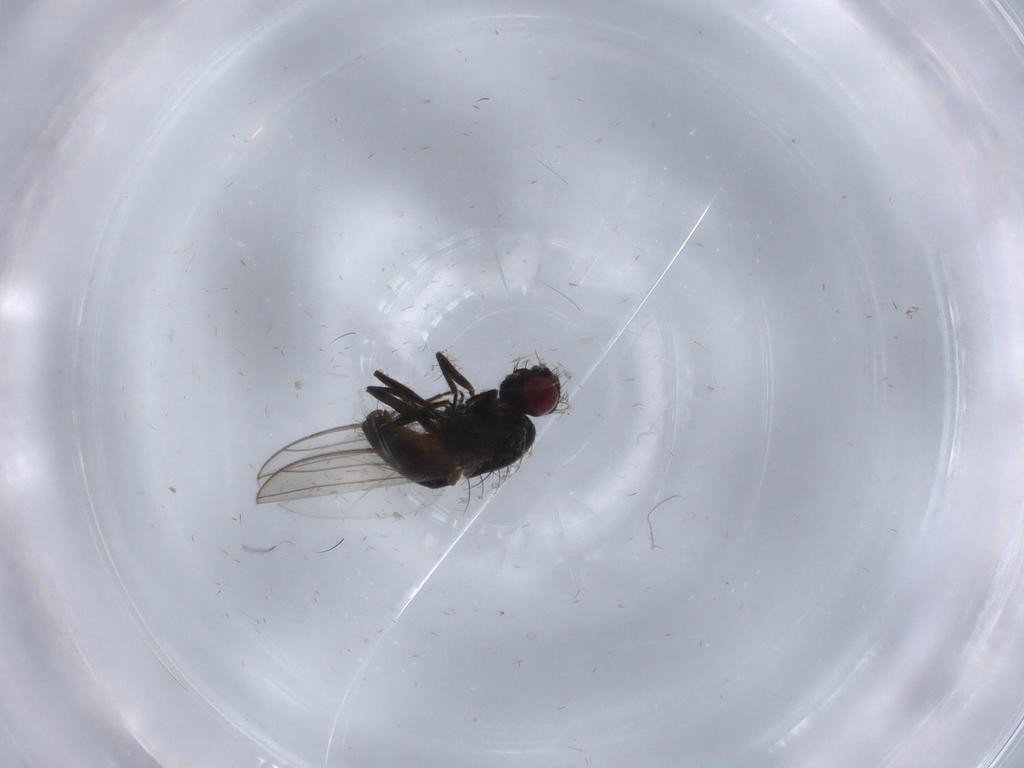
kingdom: Animalia
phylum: Arthropoda
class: Insecta
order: Diptera
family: Carnidae
